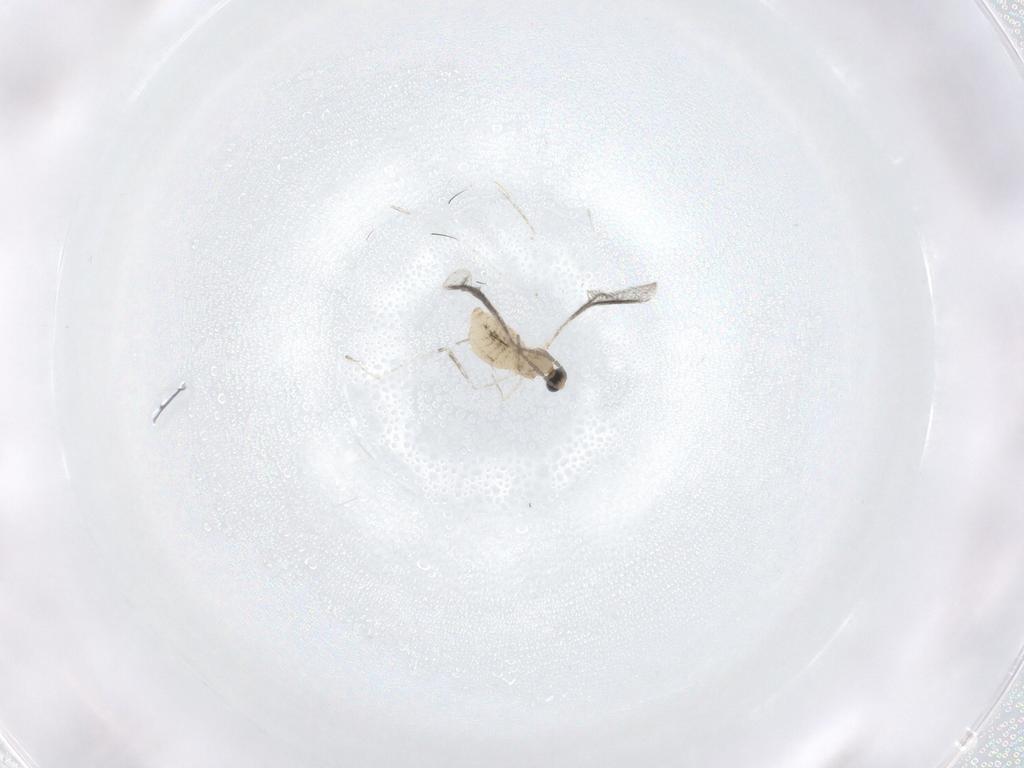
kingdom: Animalia
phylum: Arthropoda
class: Insecta
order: Diptera
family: Cecidomyiidae
